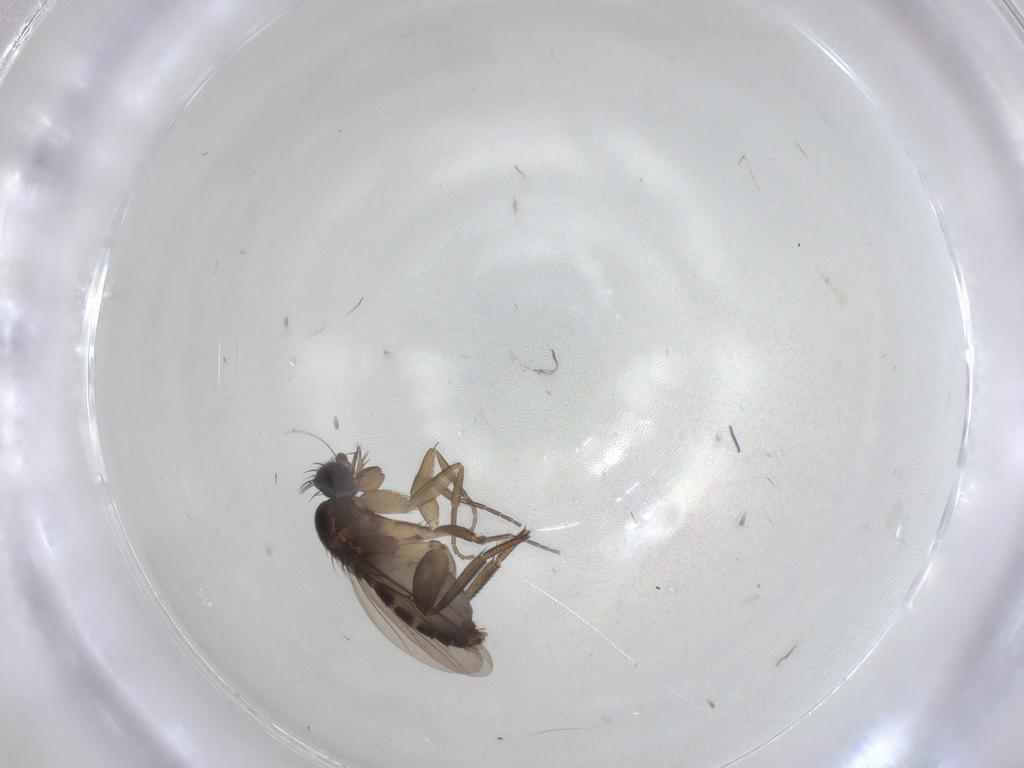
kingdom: Animalia
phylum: Arthropoda
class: Insecta
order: Diptera
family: Phoridae
